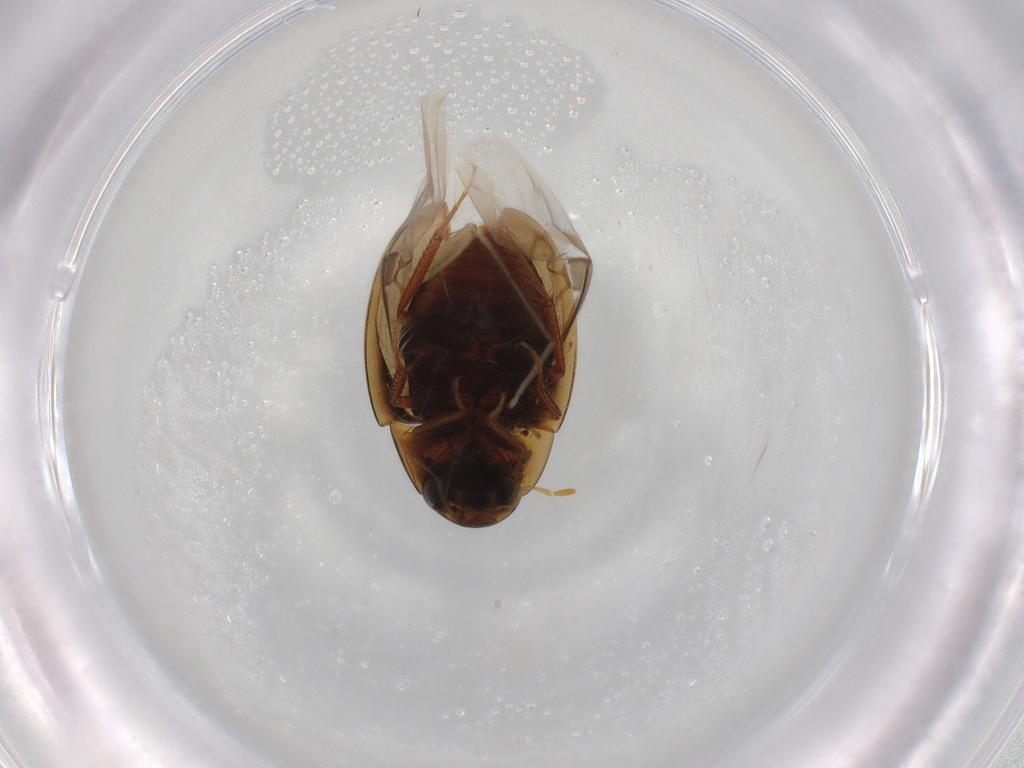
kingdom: Animalia
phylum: Arthropoda
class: Insecta
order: Coleoptera
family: Hydrophilidae
